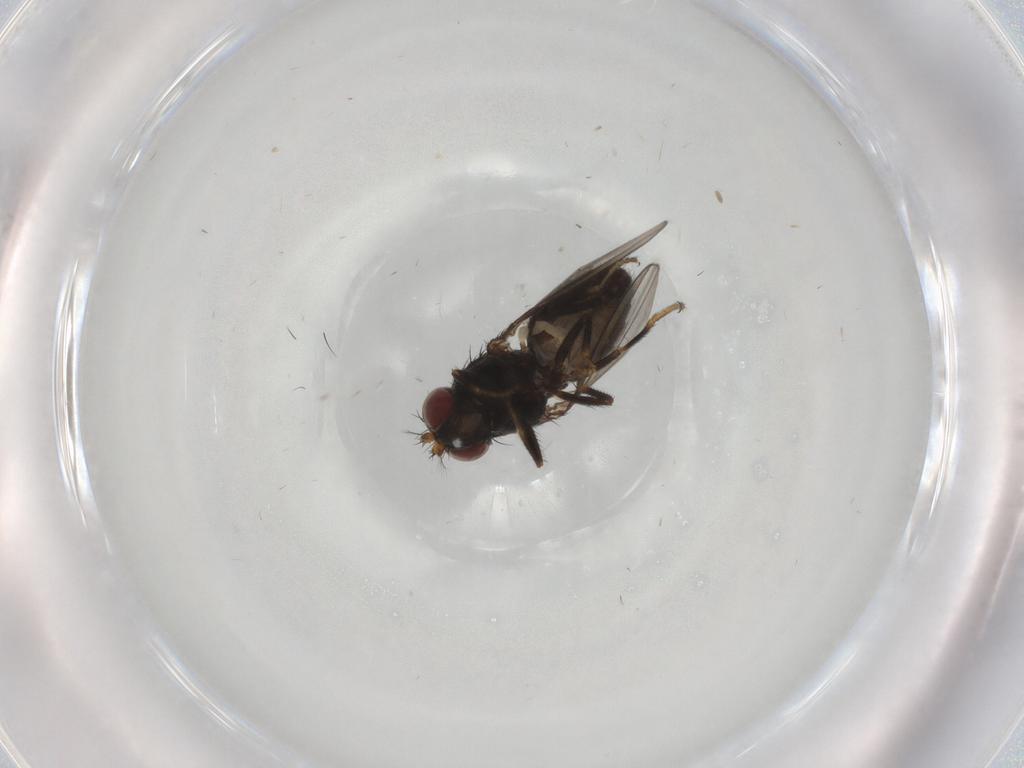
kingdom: Animalia
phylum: Arthropoda
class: Insecta
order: Diptera
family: Ephydridae
